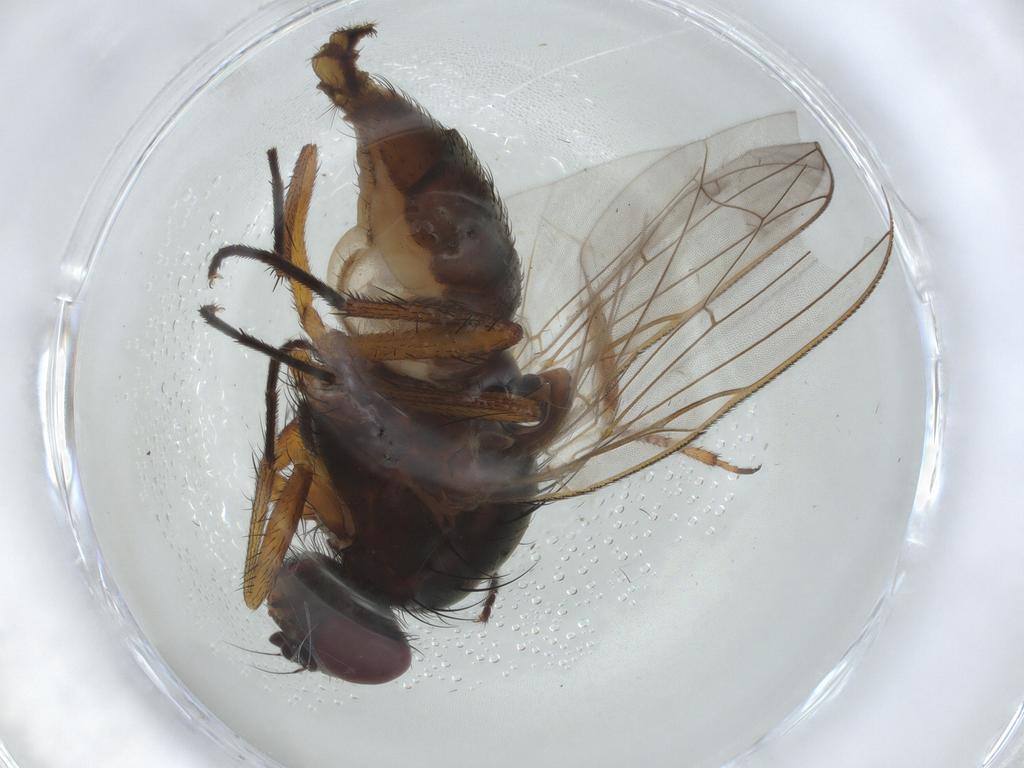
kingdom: Animalia
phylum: Arthropoda
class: Insecta
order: Diptera
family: Anthomyiidae
